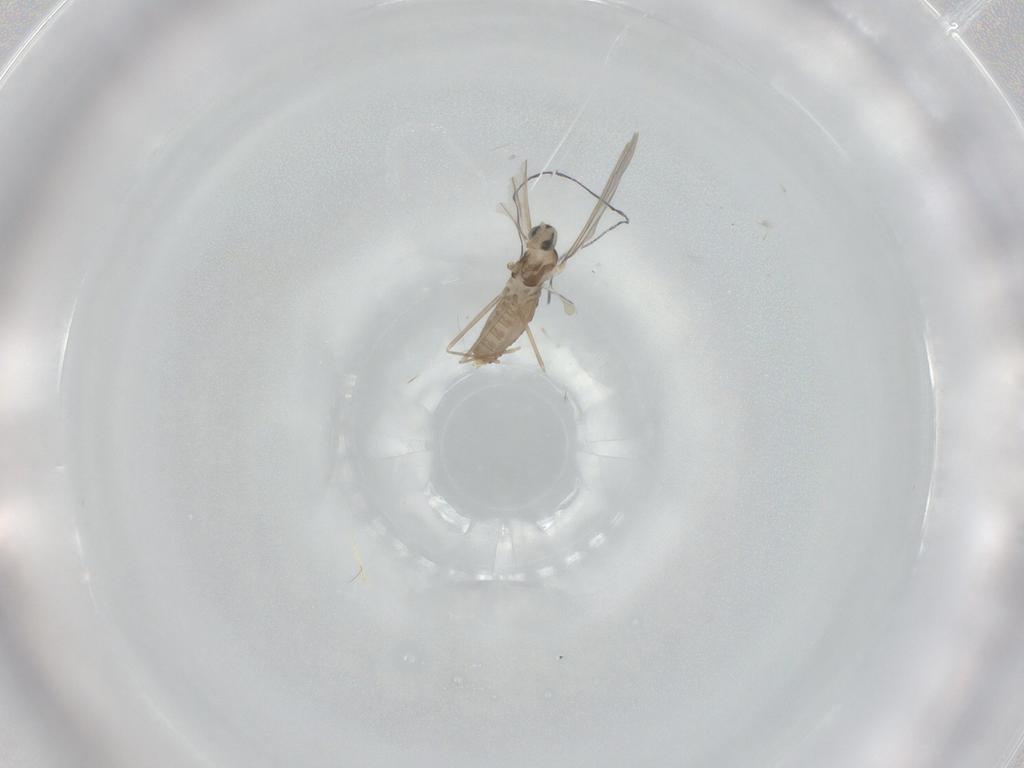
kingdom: Animalia
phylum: Arthropoda
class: Insecta
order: Diptera
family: Cecidomyiidae
